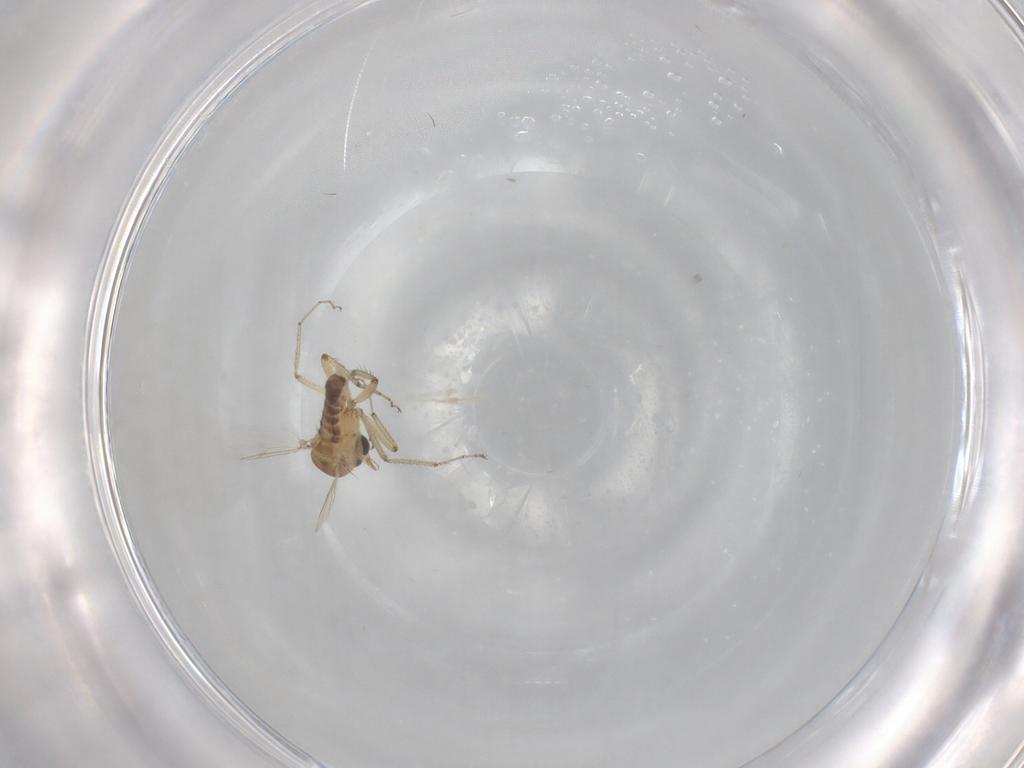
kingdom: Animalia
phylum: Arthropoda
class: Insecta
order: Diptera
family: Ceratopogonidae
